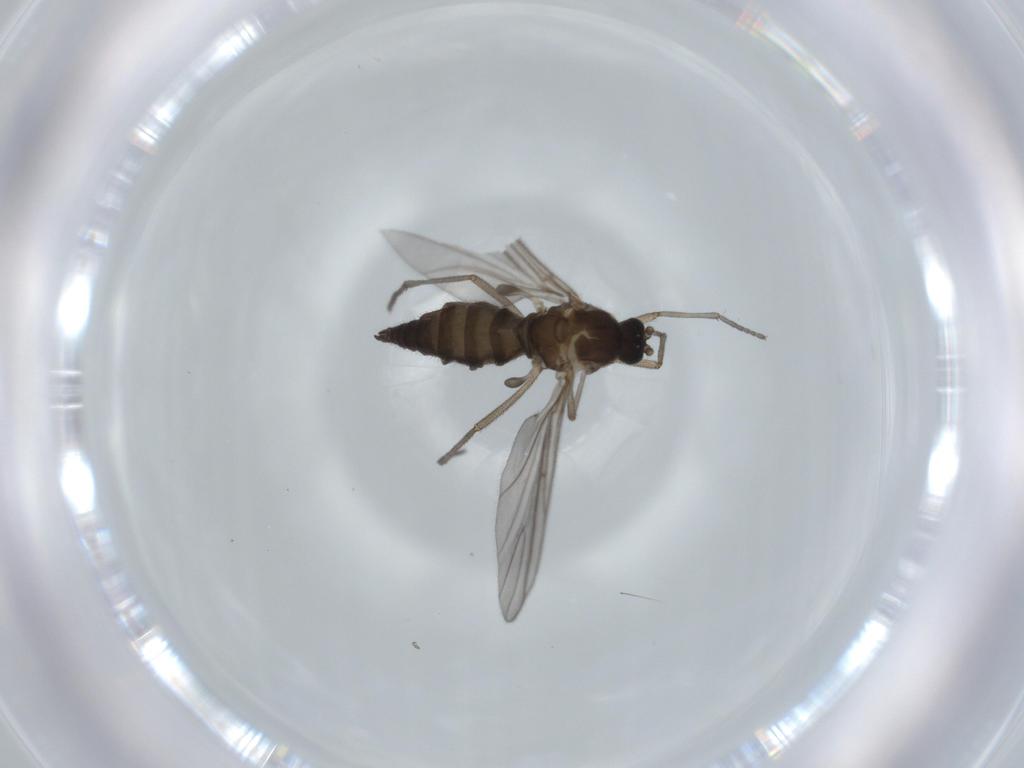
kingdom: Animalia
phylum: Arthropoda
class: Insecta
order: Diptera
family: Sciaridae
